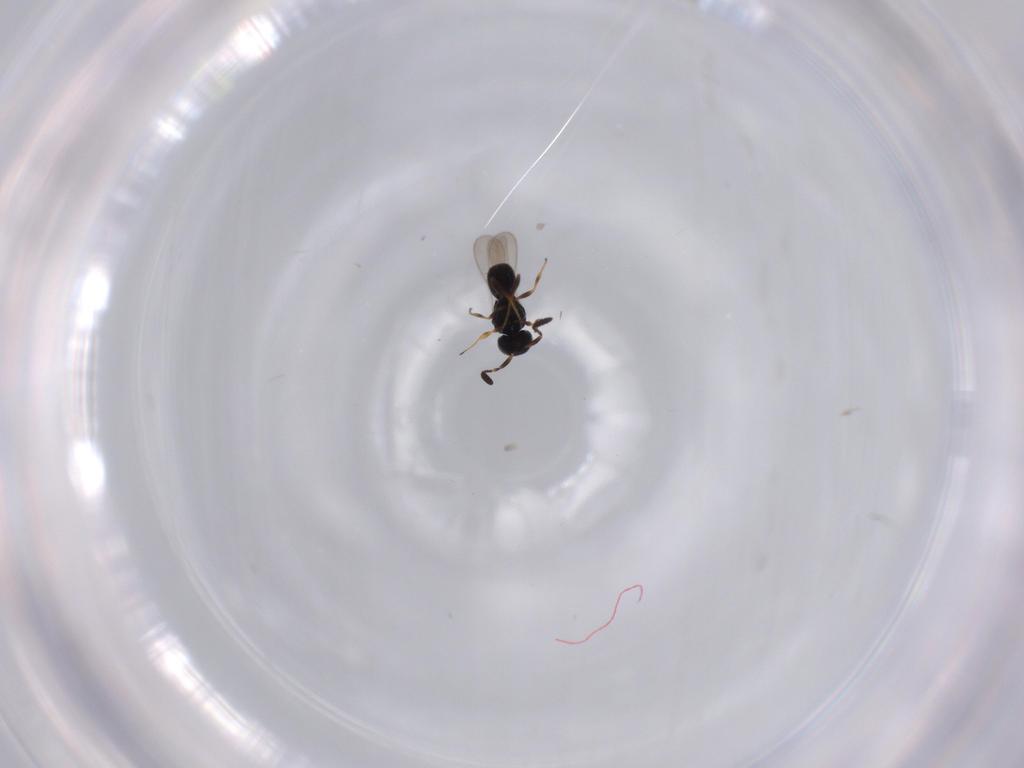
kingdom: Animalia
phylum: Arthropoda
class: Insecta
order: Hymenoptera
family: Scelionidae
